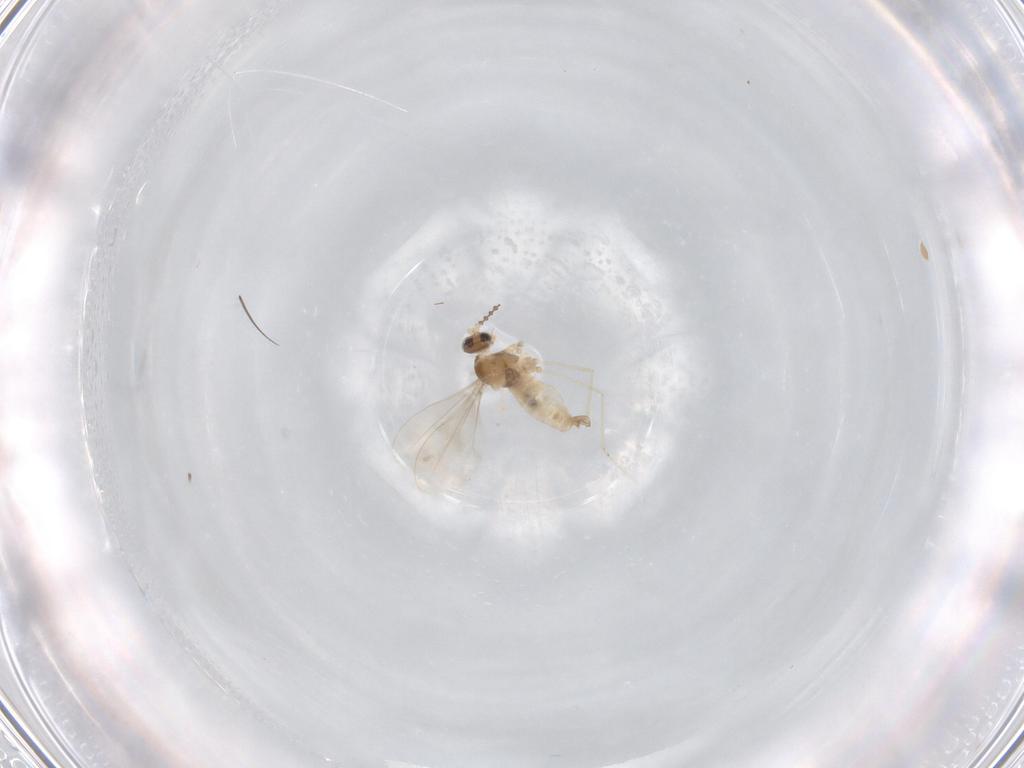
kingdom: Animalia
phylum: Arthropoda
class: Insecta
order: Diptera
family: Cecidomyiidae
